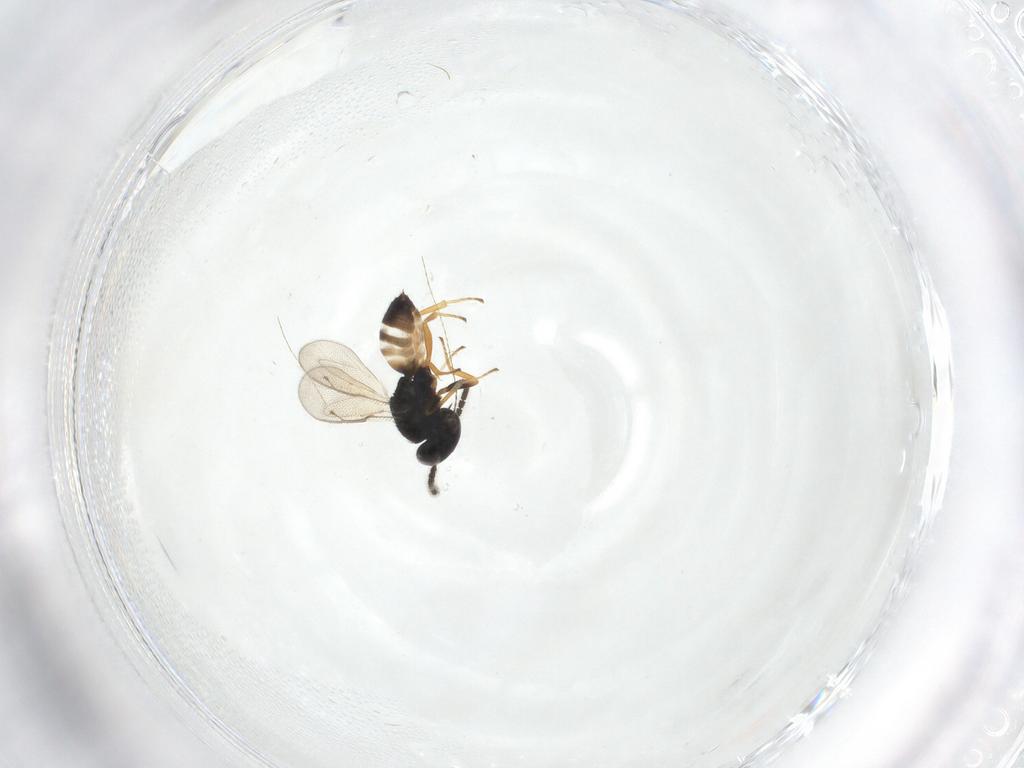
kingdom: Animalia
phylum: Arthropoda
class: Insecta
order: Hymenoptera
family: Pteromalidae
